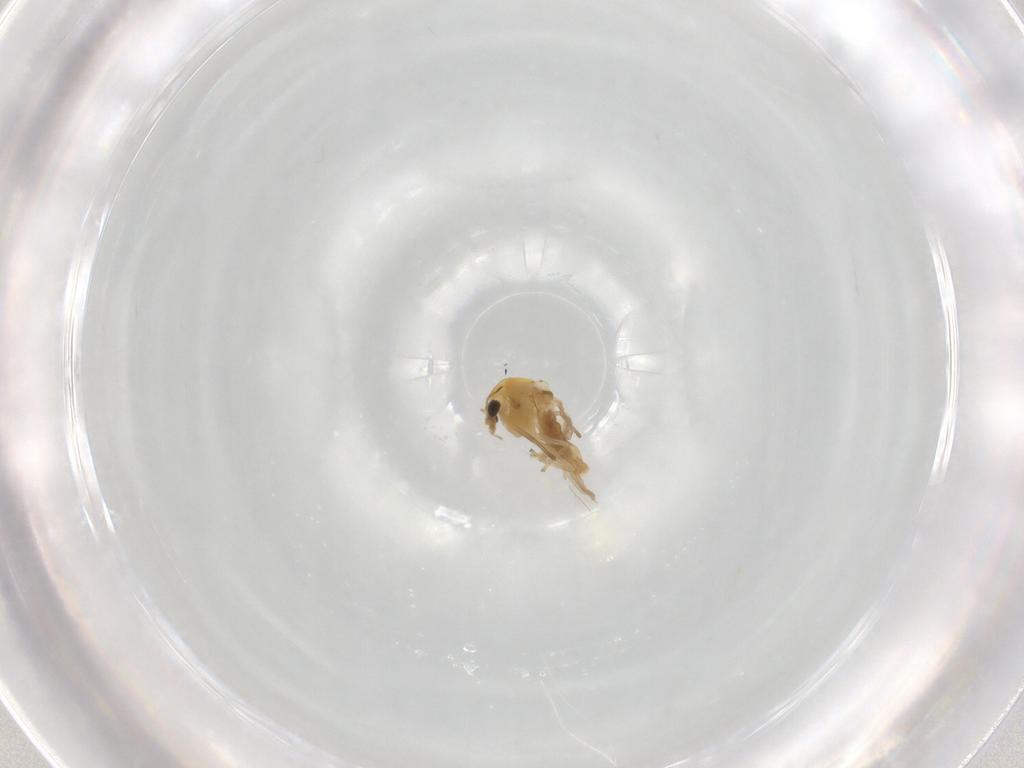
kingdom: Animalia
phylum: Arthropoda
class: Insecta
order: Diptera
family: Glossinidae
